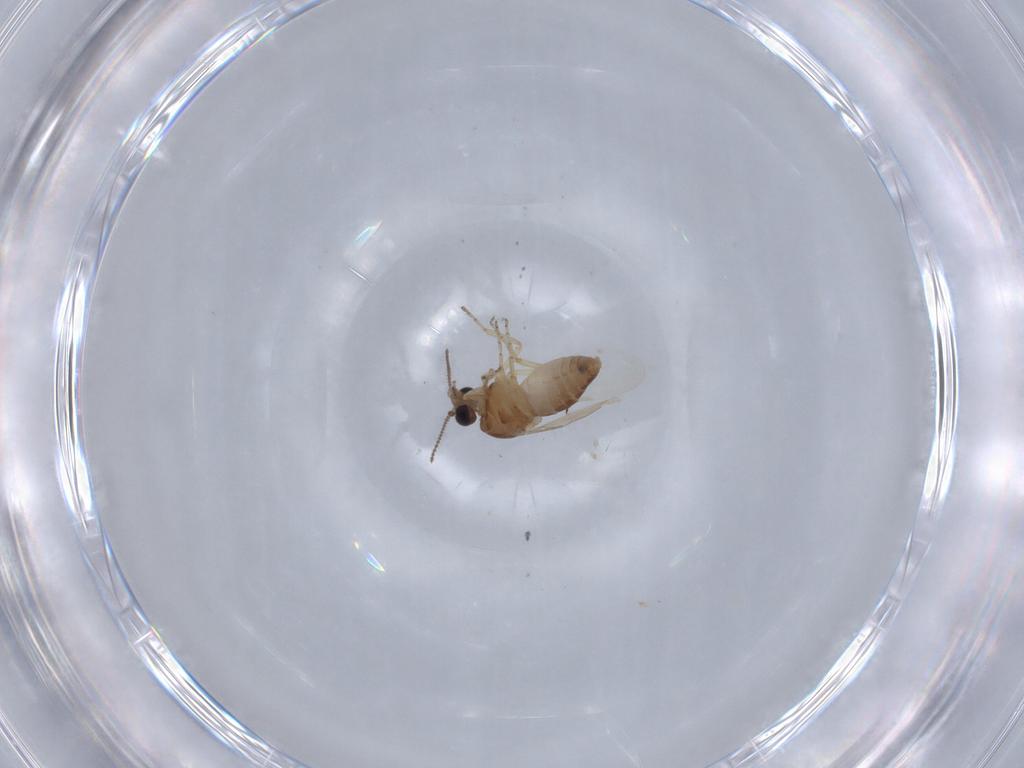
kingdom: Animalia
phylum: Arthropoda
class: Insecta
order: Diptera
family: Ceratopogonidae
